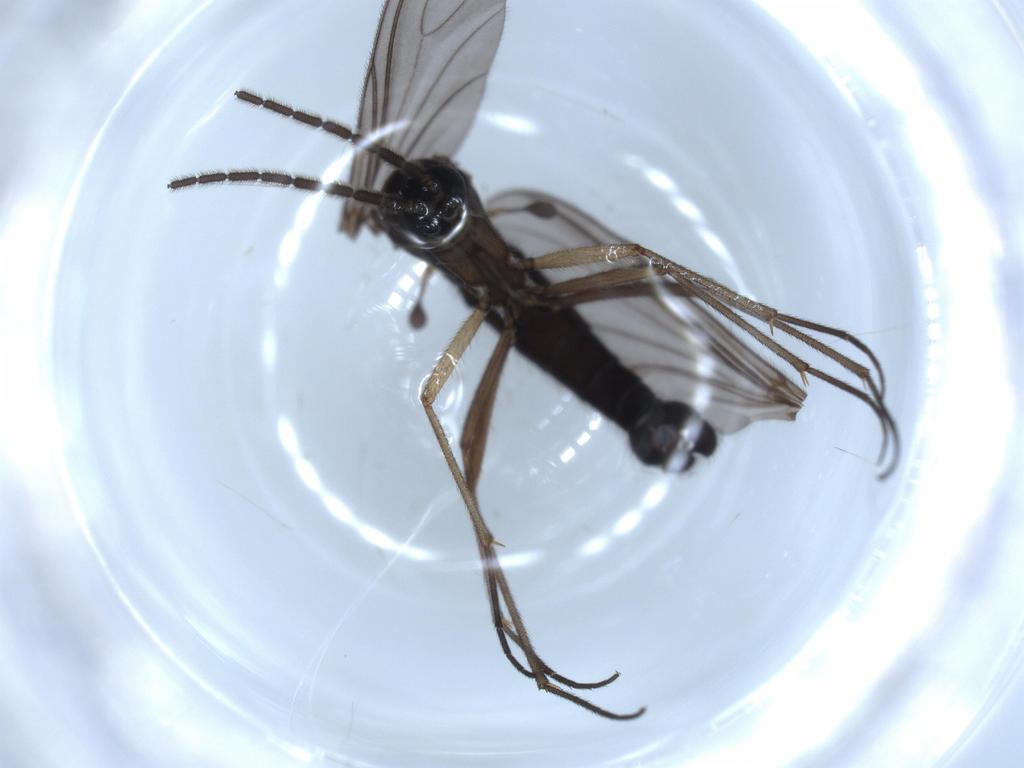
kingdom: Animalia
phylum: Arthropoda
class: Insecta
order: Diptera
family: Sciaridae
